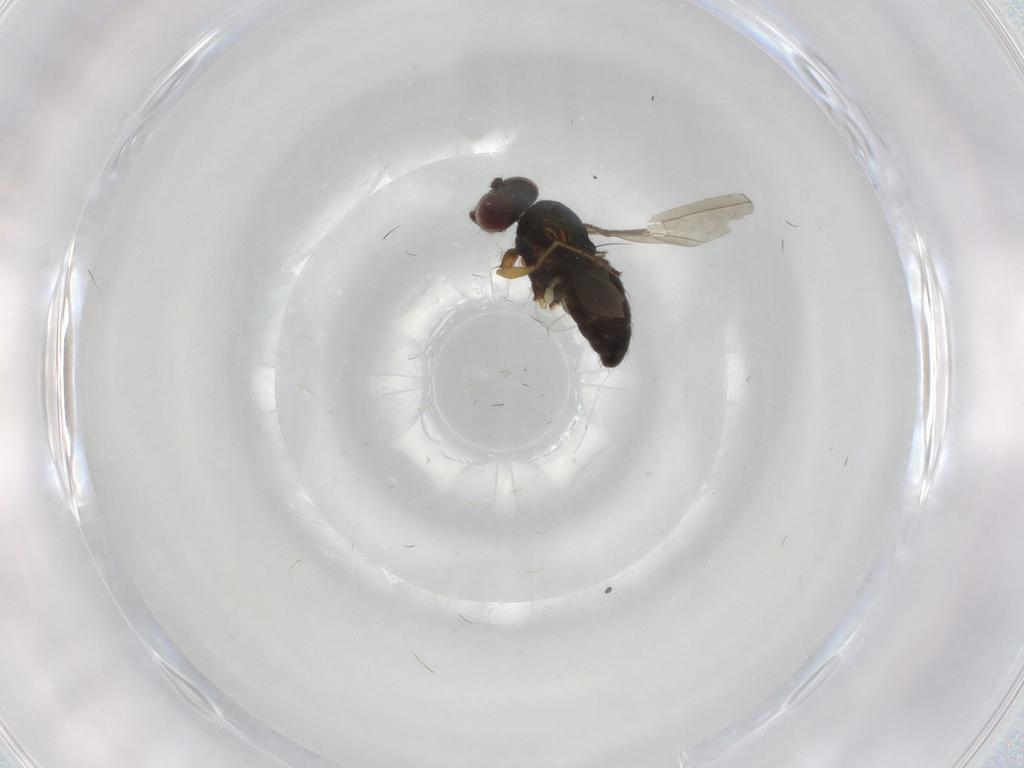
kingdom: Animalia
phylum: Arthropoda
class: Insecta
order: Diptera
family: Dolichopodidae
